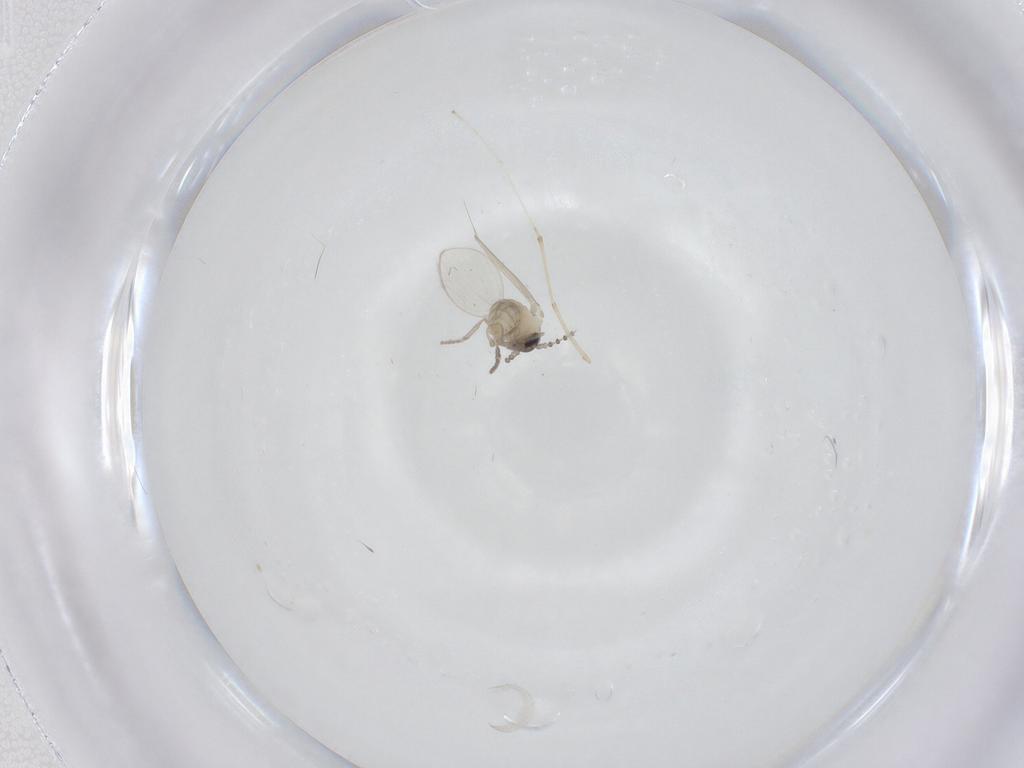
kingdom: Animalia
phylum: Arthropoda
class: Insecta
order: Diptera
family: Cecidomyiidae
